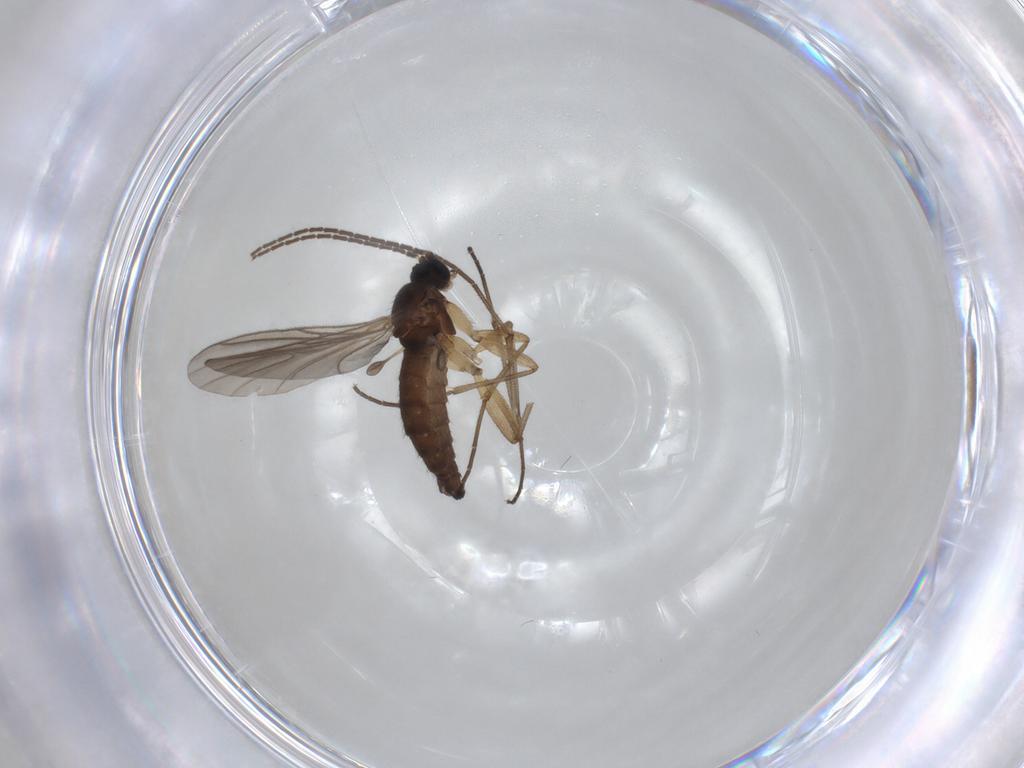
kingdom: Animalia
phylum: Arthropoda
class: Insecta
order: Diptera
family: Sciaridae
